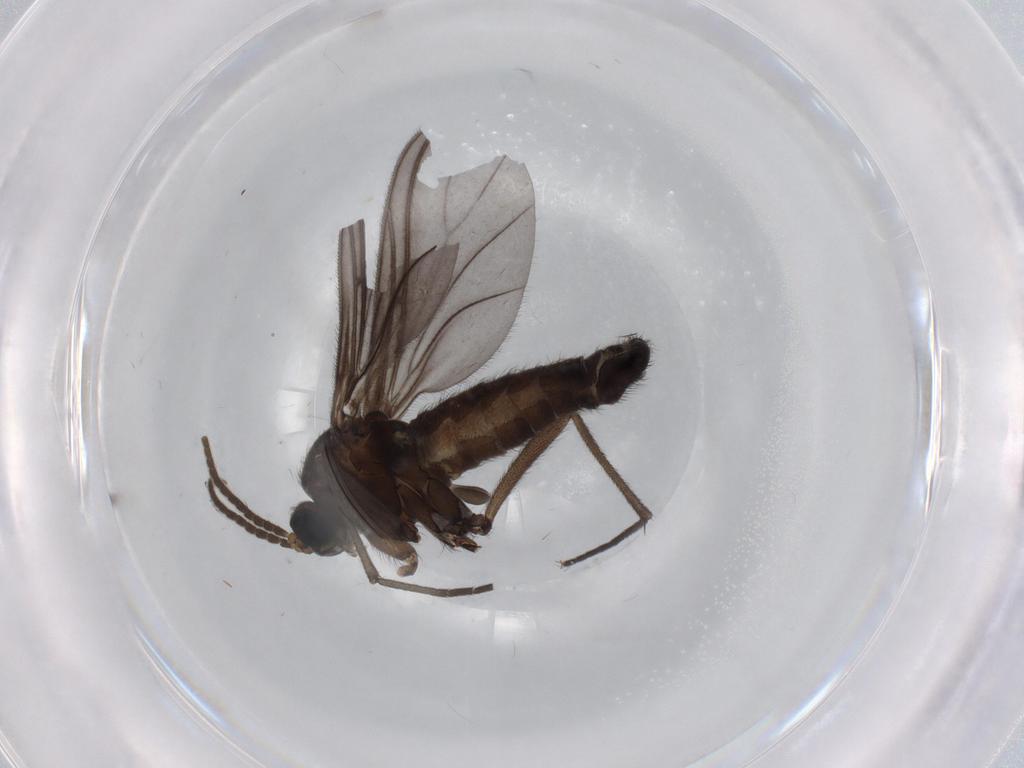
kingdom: Animalia
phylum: Arthropoda
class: Insecta
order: Diptera
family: Sciaridae
